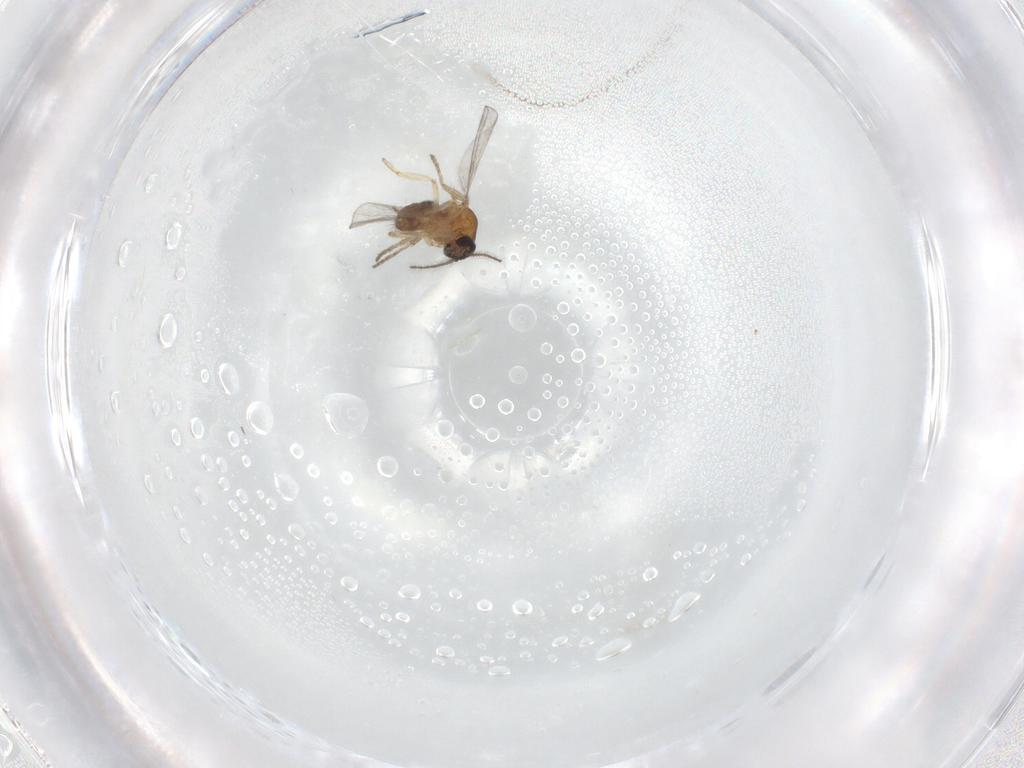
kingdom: Animalia
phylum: Arthropoda
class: Insecta
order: Diptera
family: Ceratopogonidae
